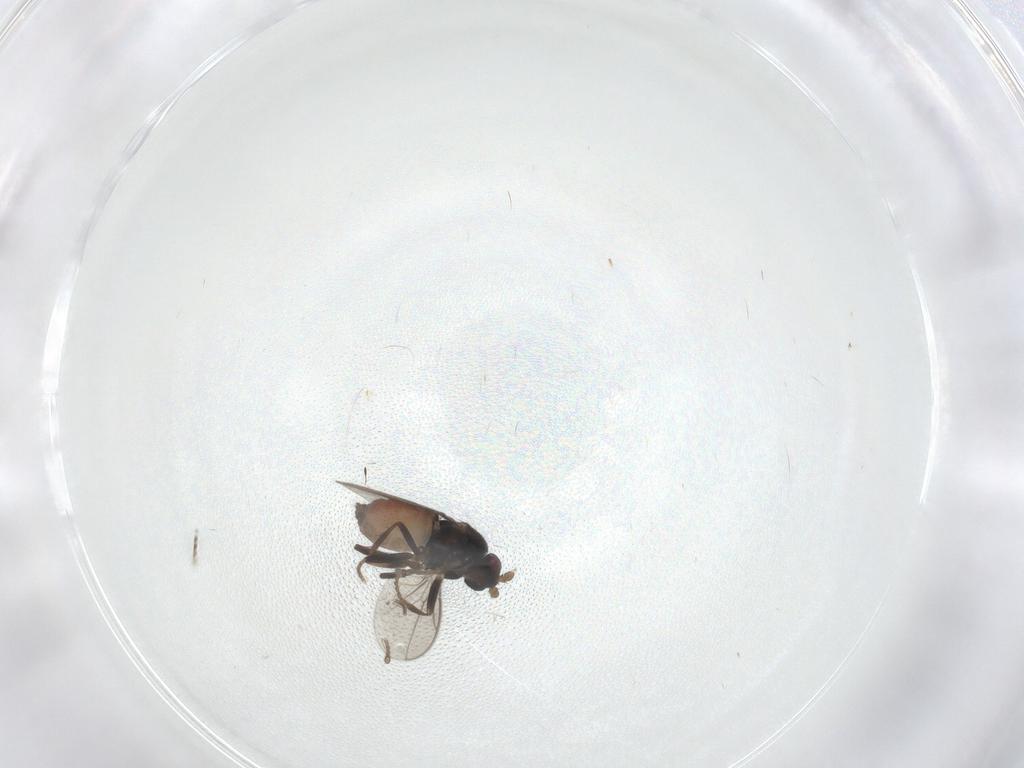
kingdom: Animalia
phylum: Arthropoda
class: Insecta
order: Diptera
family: Sphaeroceridae
